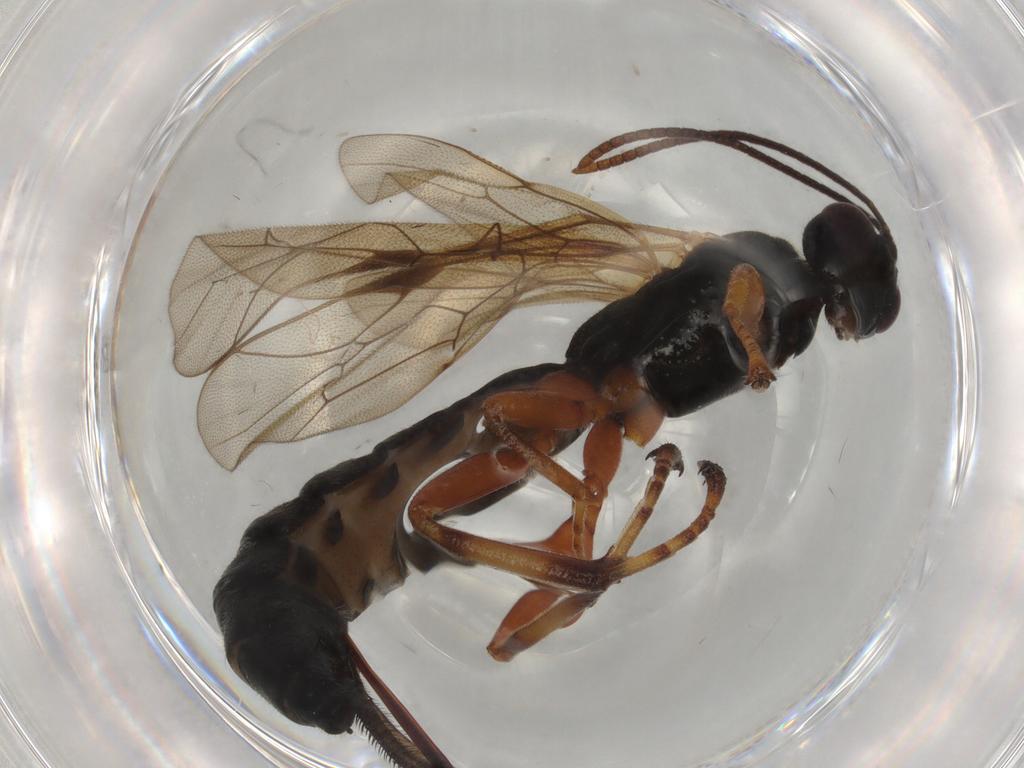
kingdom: Animalia
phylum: Arthropoda
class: Insecta
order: Hymenoptera
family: Ichneumonidae
